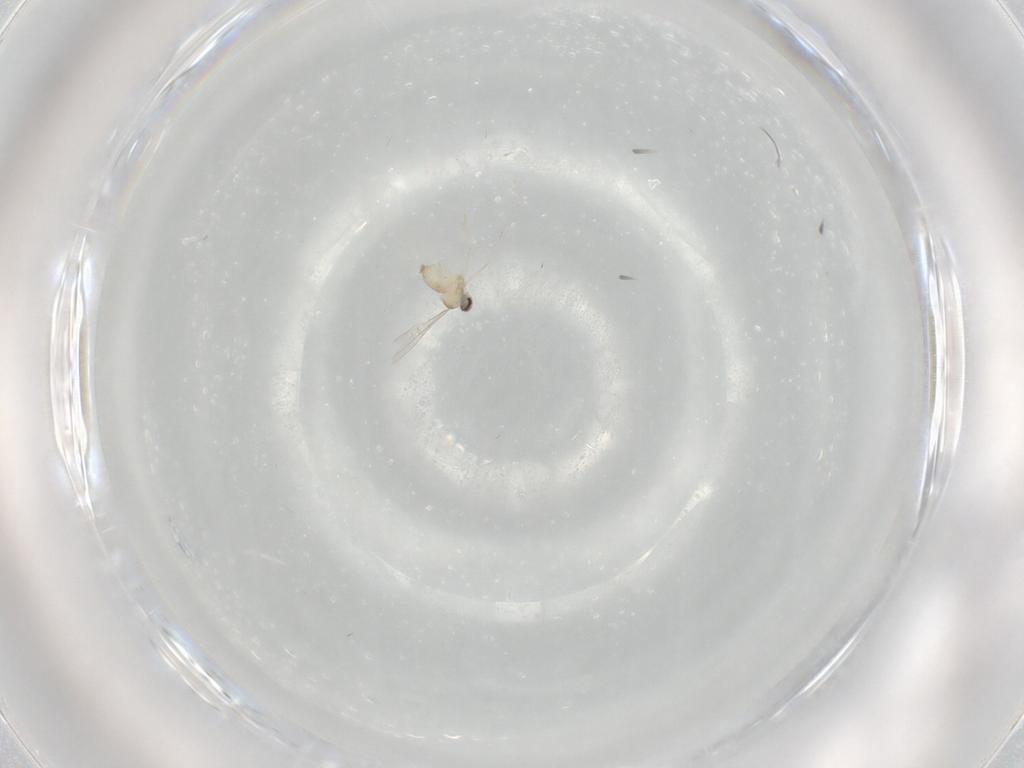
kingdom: Animalia
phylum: Arthropoda
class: Insecta
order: Diptera
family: Cecidomyiidae
